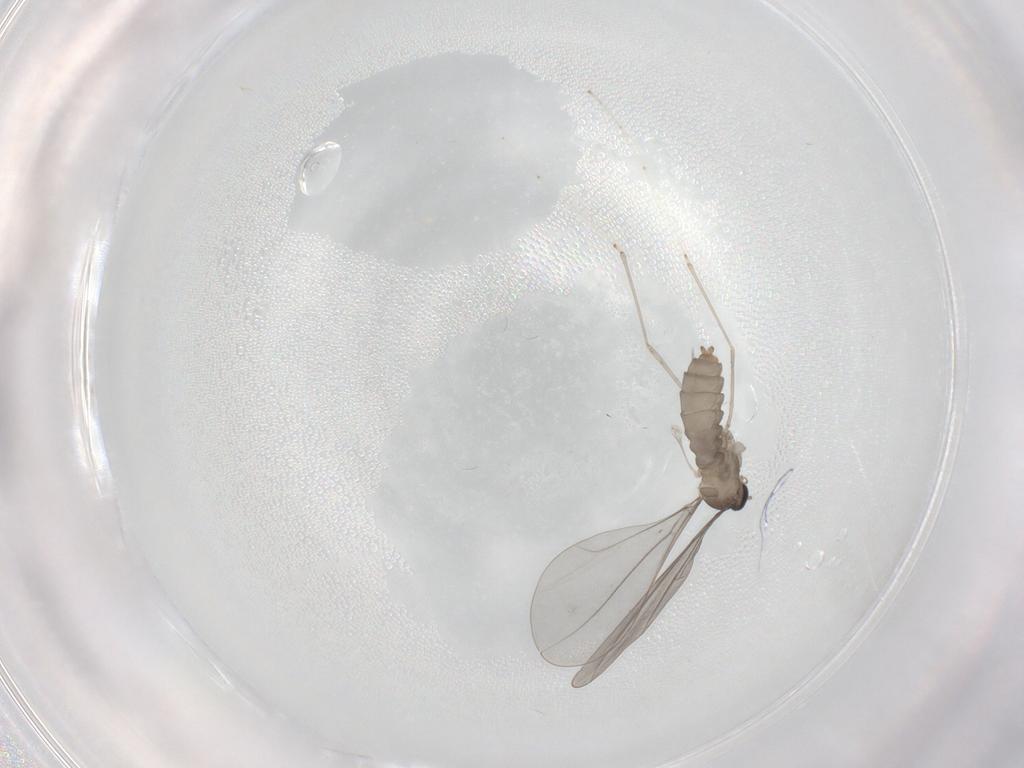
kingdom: Animalia
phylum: Arthropoda
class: Insecta
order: Diptera
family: Cecidomyiidae
